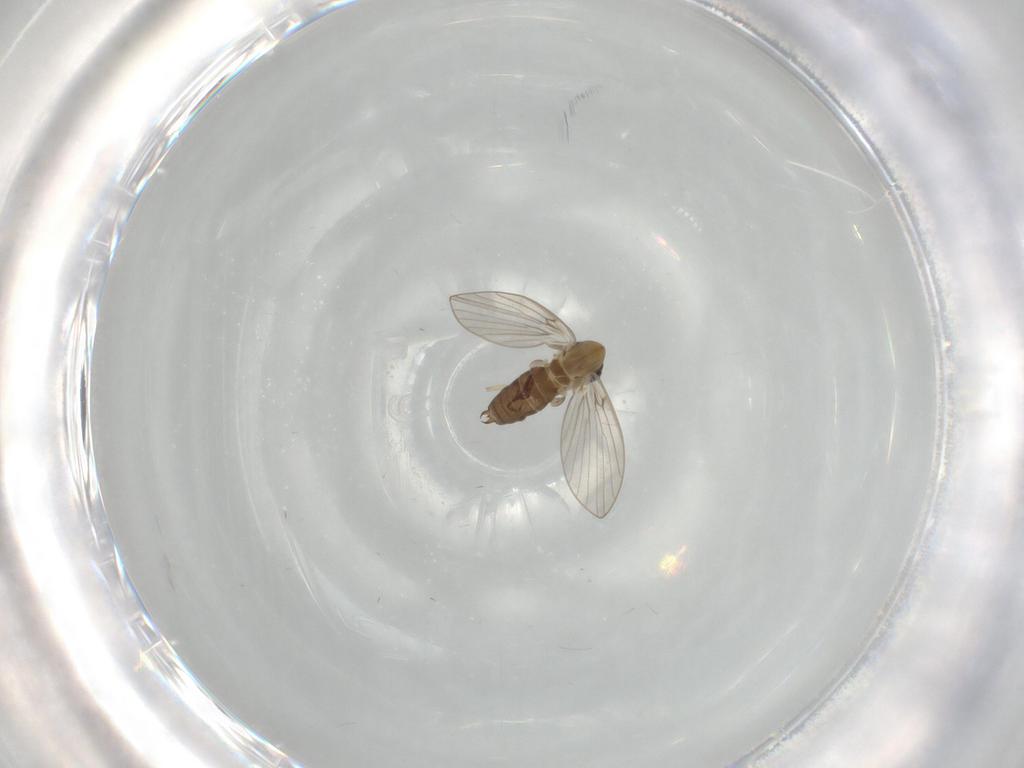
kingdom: Animalia
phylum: Arthropoda
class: Insecta
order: Diptera
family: Psychodidae
